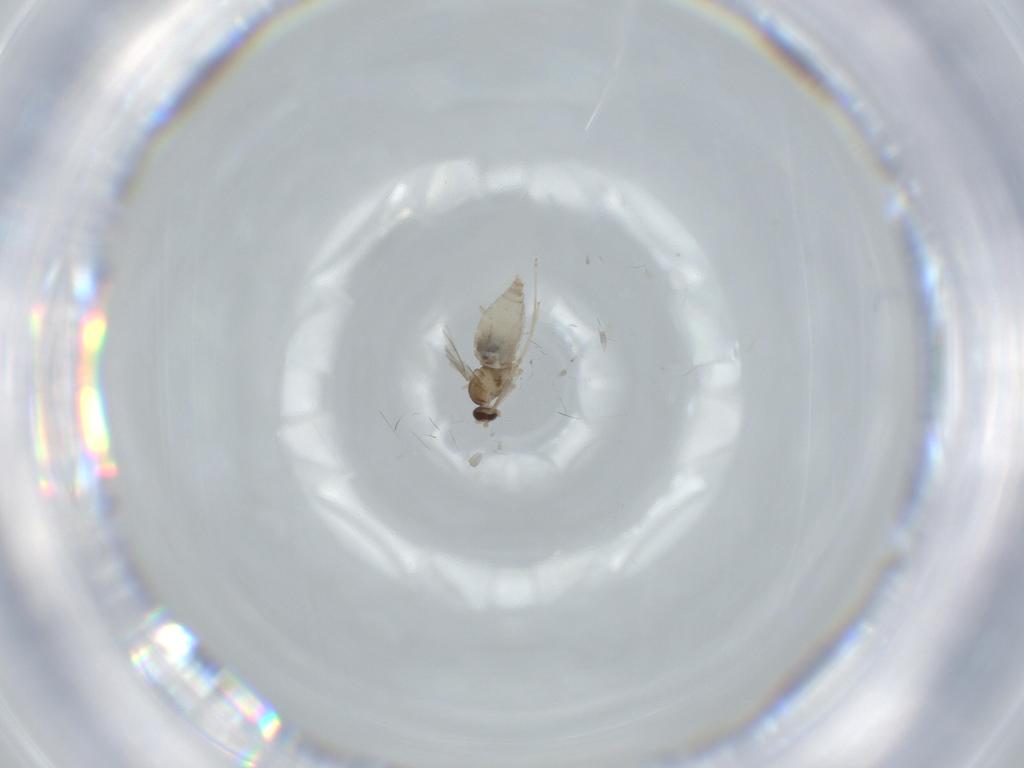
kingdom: Animalia
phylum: Arthropoda
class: Insecta
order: Diptera
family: Cecidomyiidae
